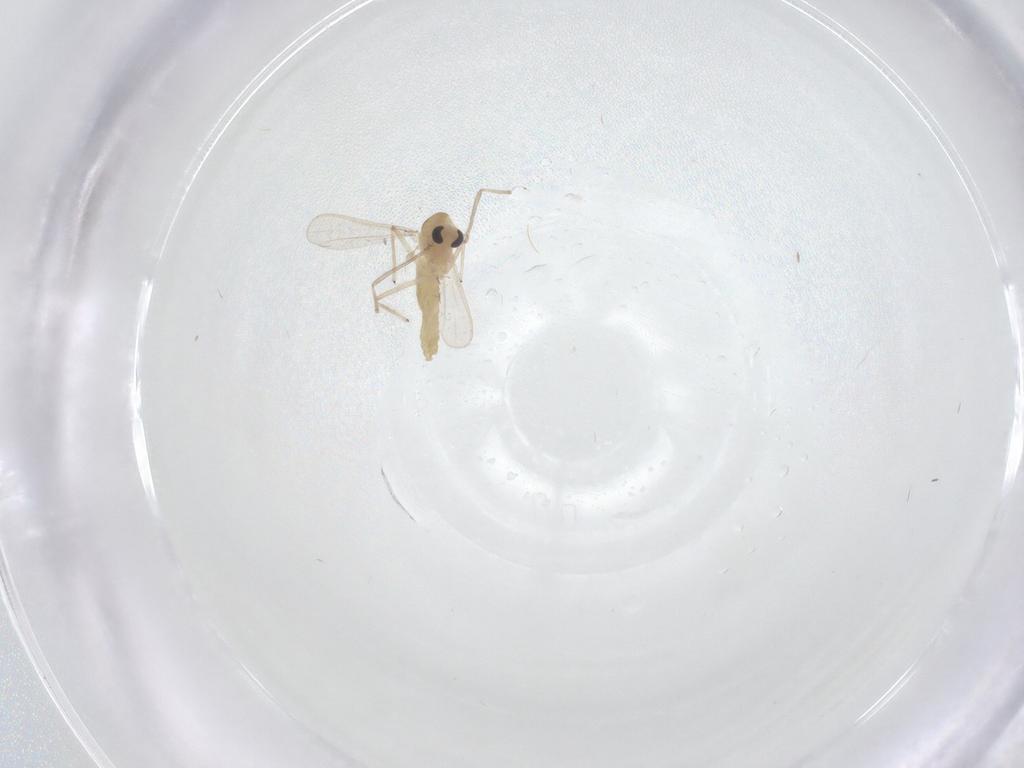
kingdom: Animalia
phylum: Arthropoda
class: Insecta
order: Diptera
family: Chironomidae
